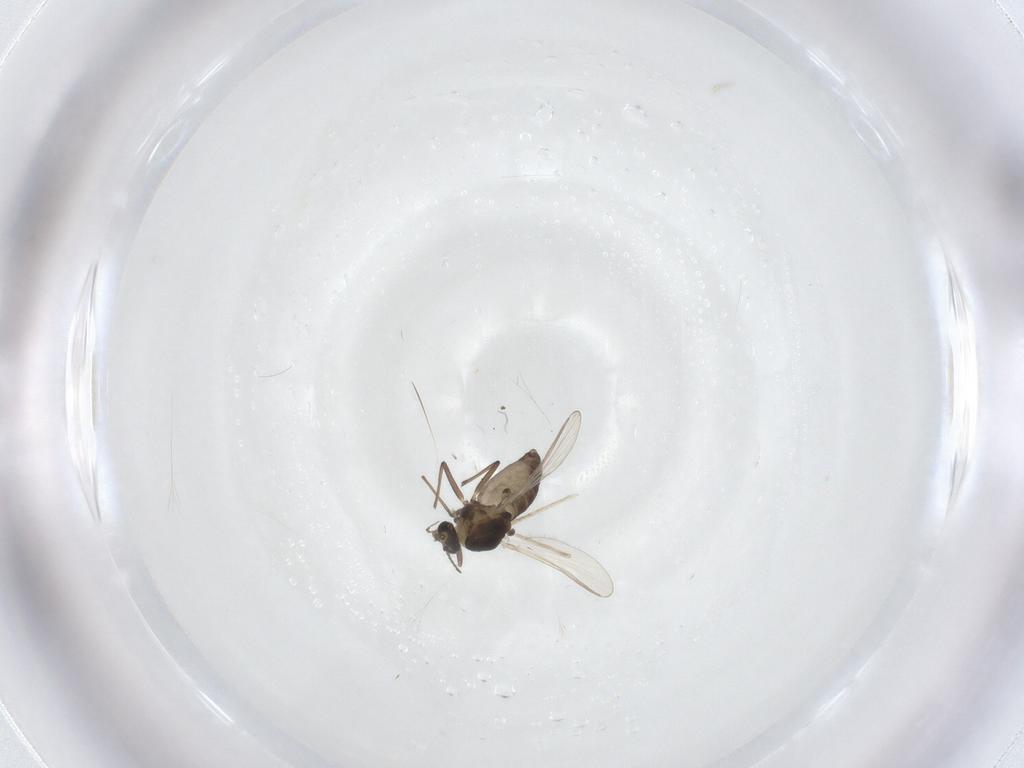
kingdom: Animalia
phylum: Arthropoda
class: Insecta
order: Diptera
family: Chironomidae
